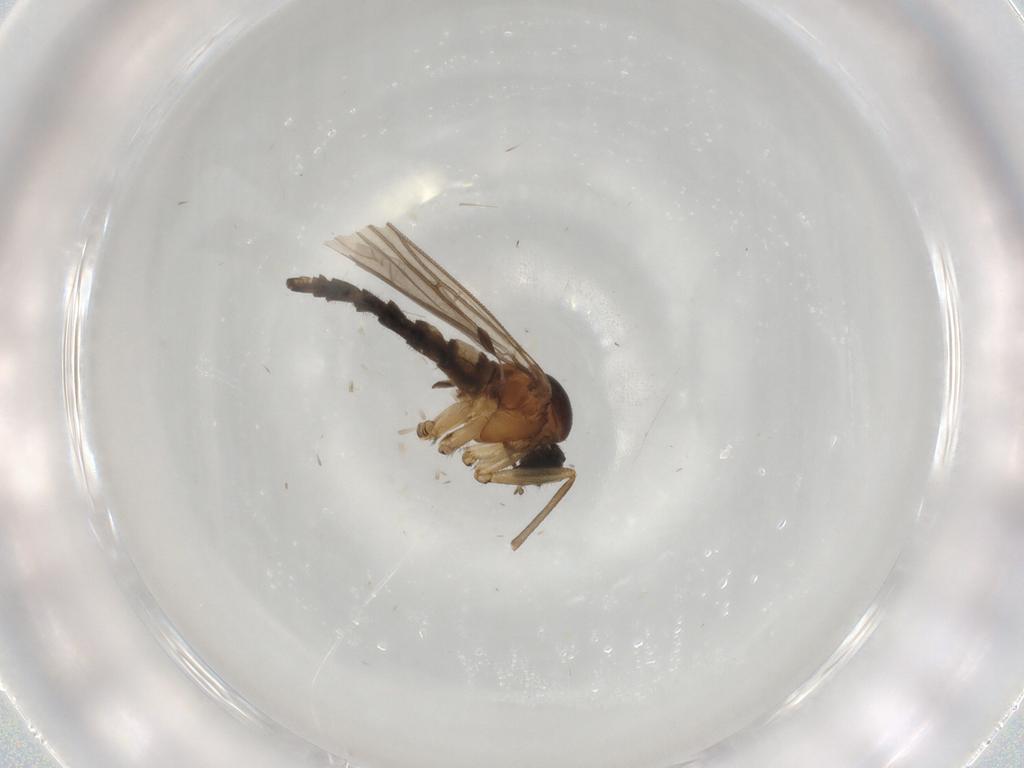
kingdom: Animalia
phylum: Arthropoda
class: Insecta
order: Diptera
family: Sciaridae
